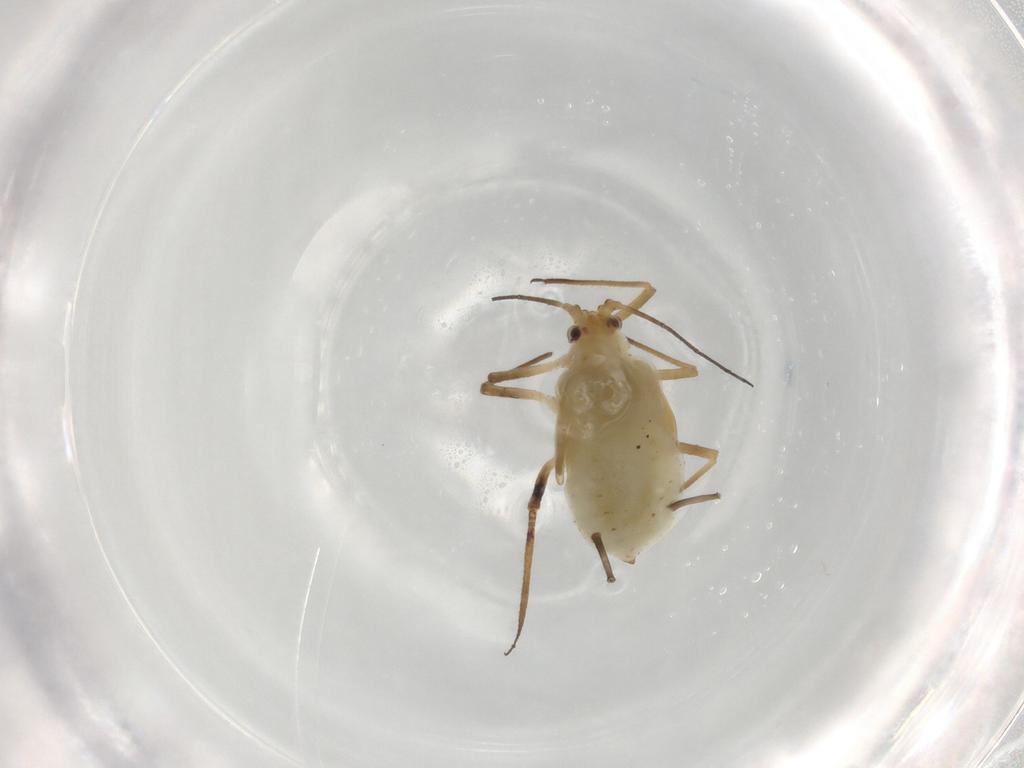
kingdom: Animalia
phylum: Arthropoda
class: Insecta
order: Hemiptera
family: Aphididae
